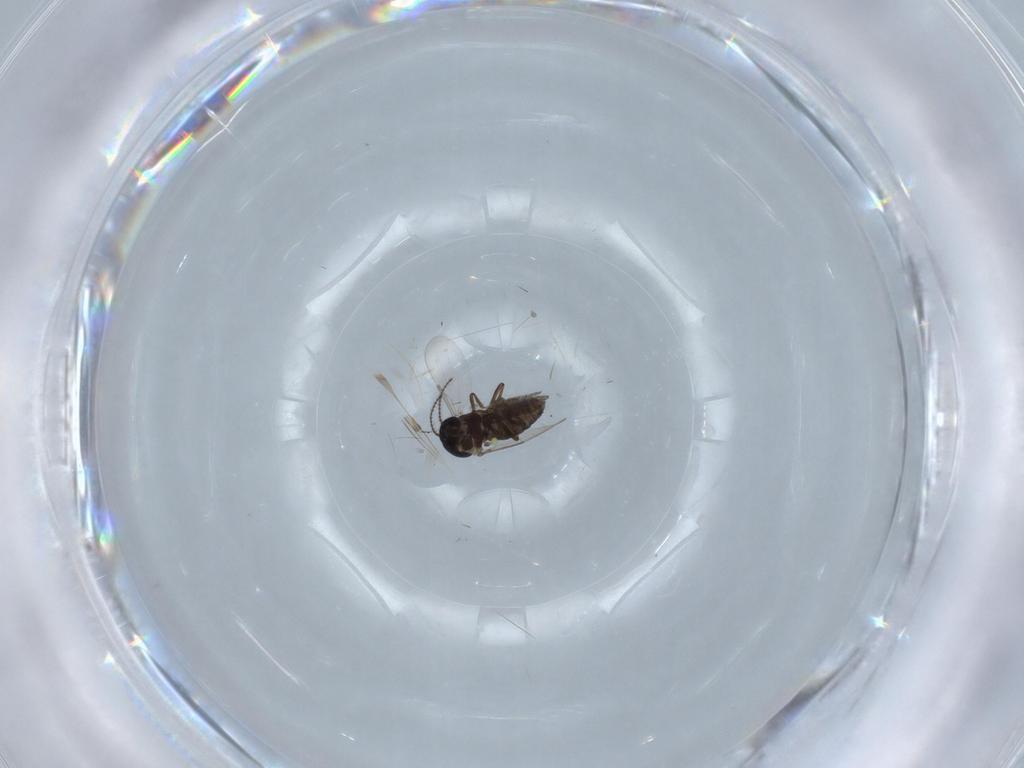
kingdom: Animalia
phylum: Arthropoda
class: Insecta
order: Diptera
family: Ceratopogonidae
